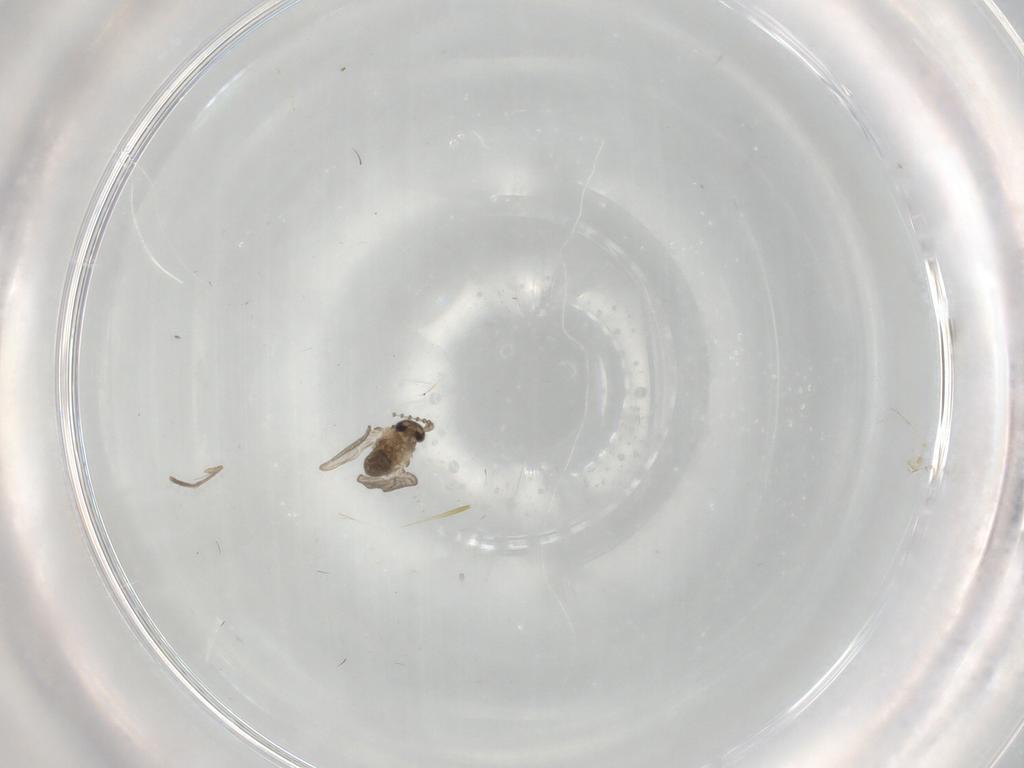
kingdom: Animalia
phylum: Arthropoda
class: Insecta
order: Diptera
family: Psychodidae
